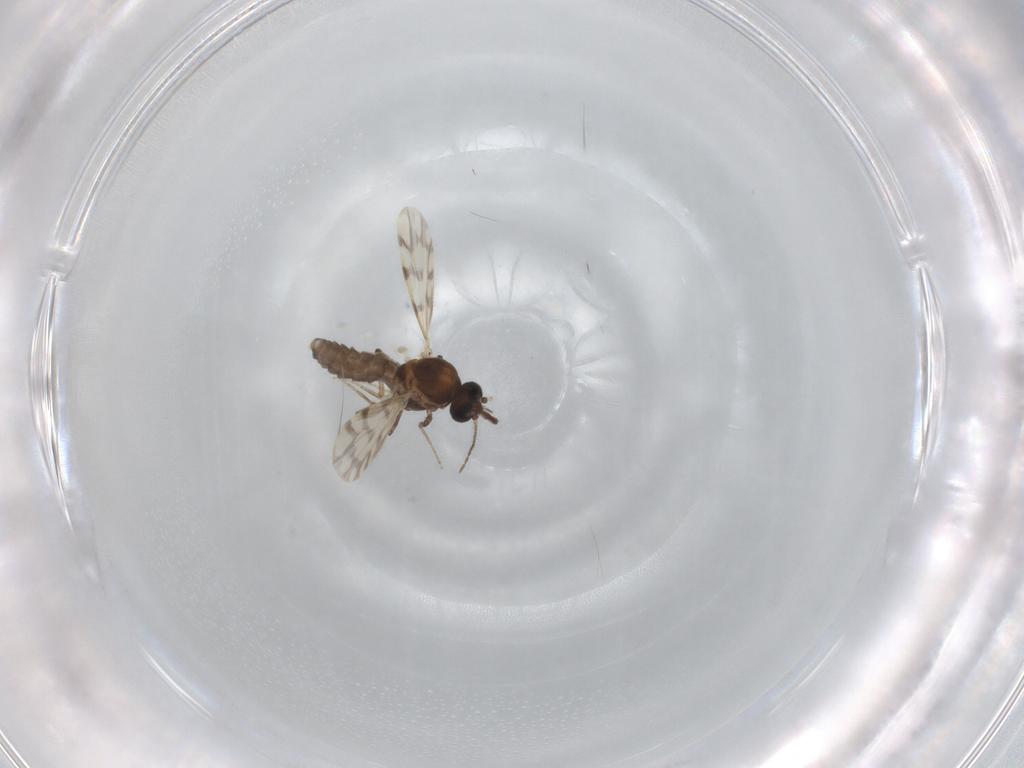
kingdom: Animalia
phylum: Arthropoda
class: Insecta
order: Diptera
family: Ceratopogonidae
